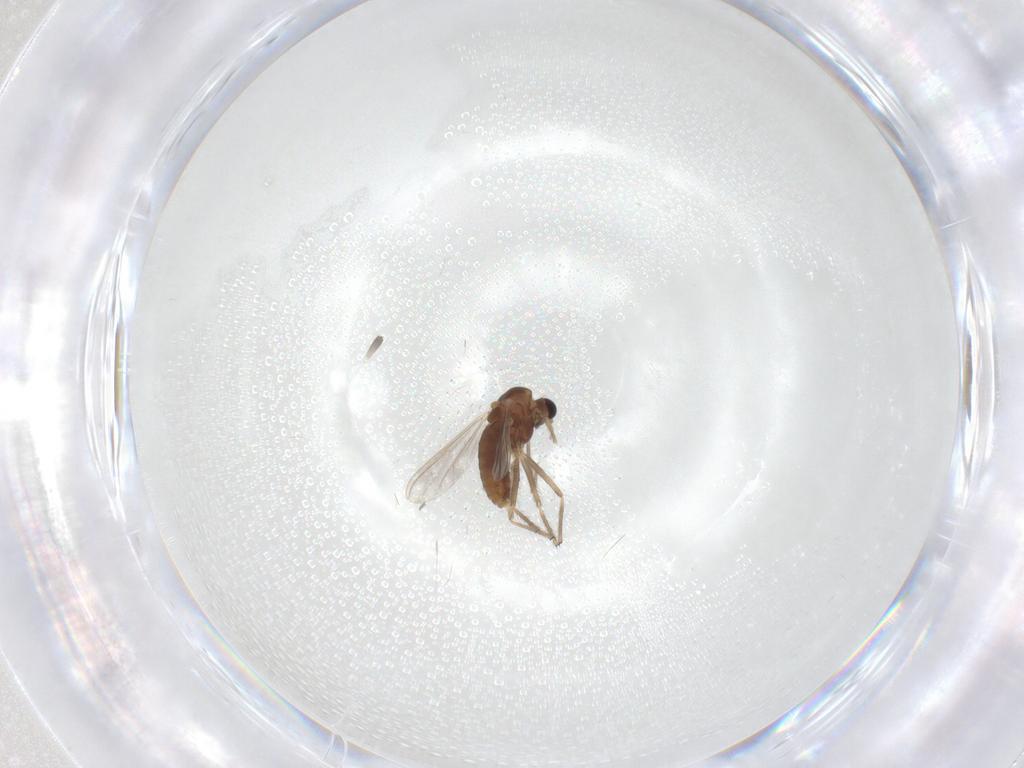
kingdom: Animalia
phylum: Arthropoda
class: Insecta
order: Diptera
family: Chironomidae
